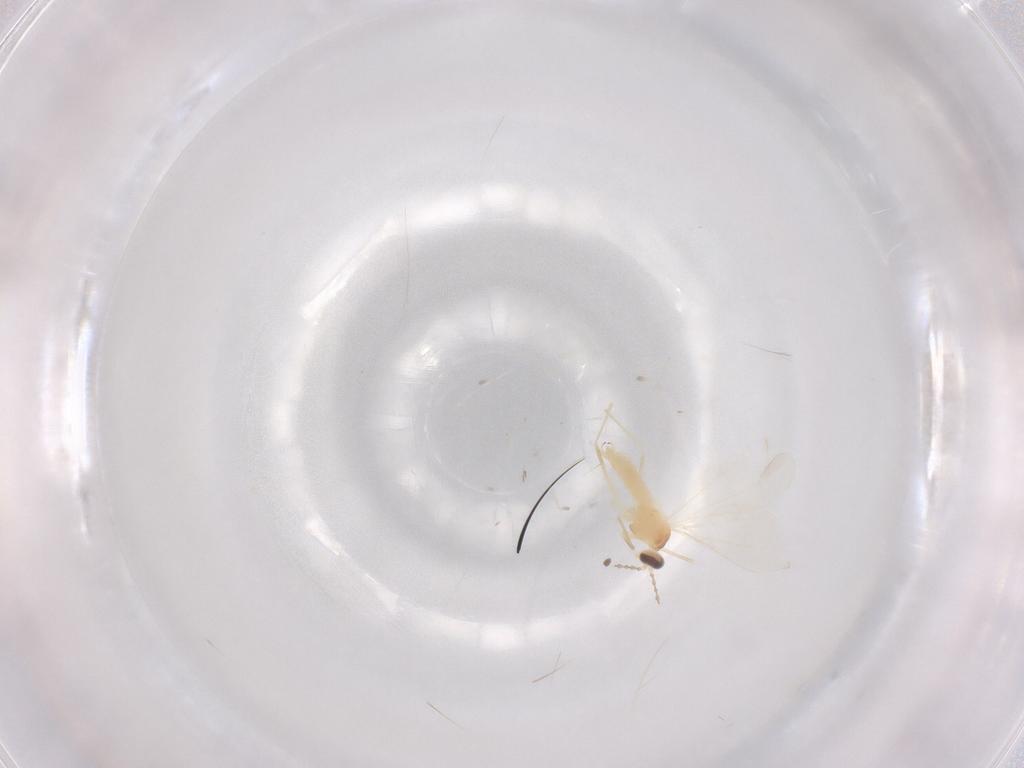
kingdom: Animalia
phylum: Arthropoda
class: Insecta
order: Diptera
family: Cecidomyiidae
